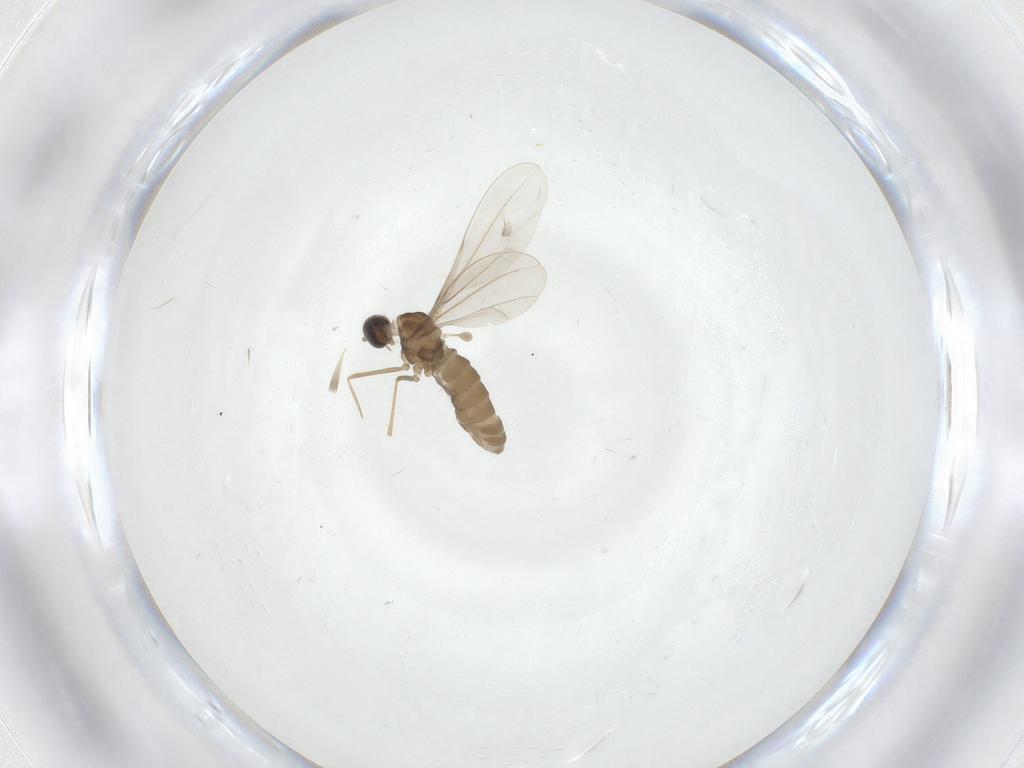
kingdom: Animalia
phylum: Arthropoda
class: Insecta
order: Diptera
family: Cecidomyiidae
